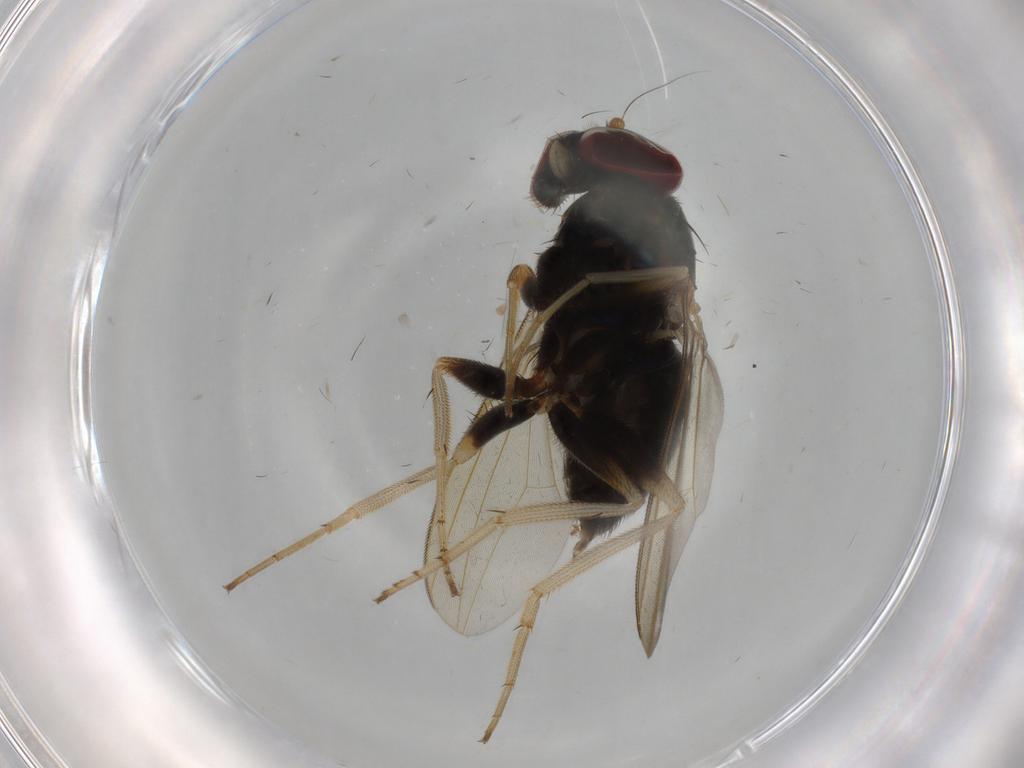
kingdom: Animalia
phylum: Arthropoda
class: Insecta
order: Diptera
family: Dolichopodidae
